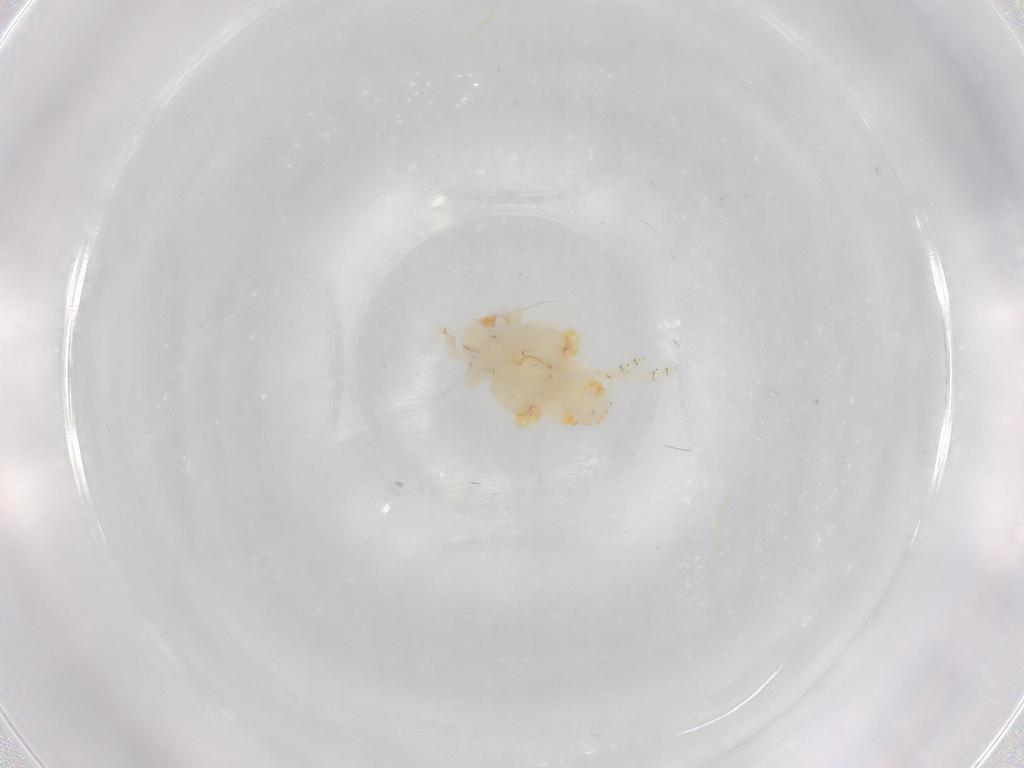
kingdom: Animalia
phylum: Arthropoda
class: Insecta
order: Hemiptera
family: Nogodinidae
